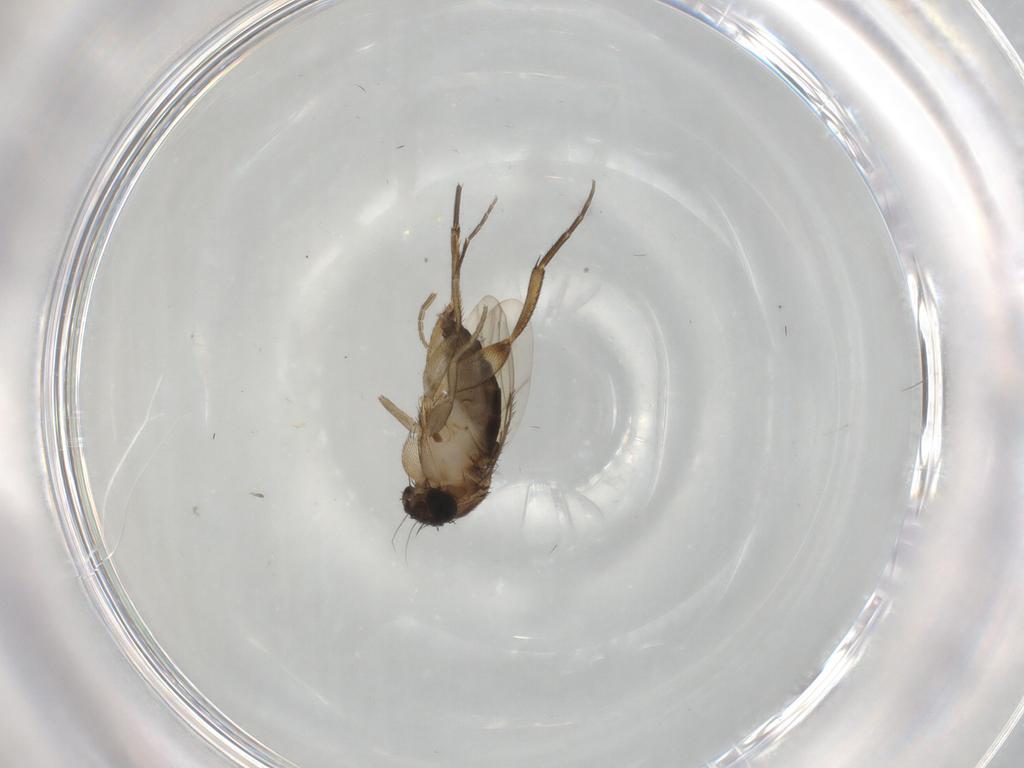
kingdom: Animalia
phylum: Arthropoda
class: Insecta
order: Diptera
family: Phoridae
